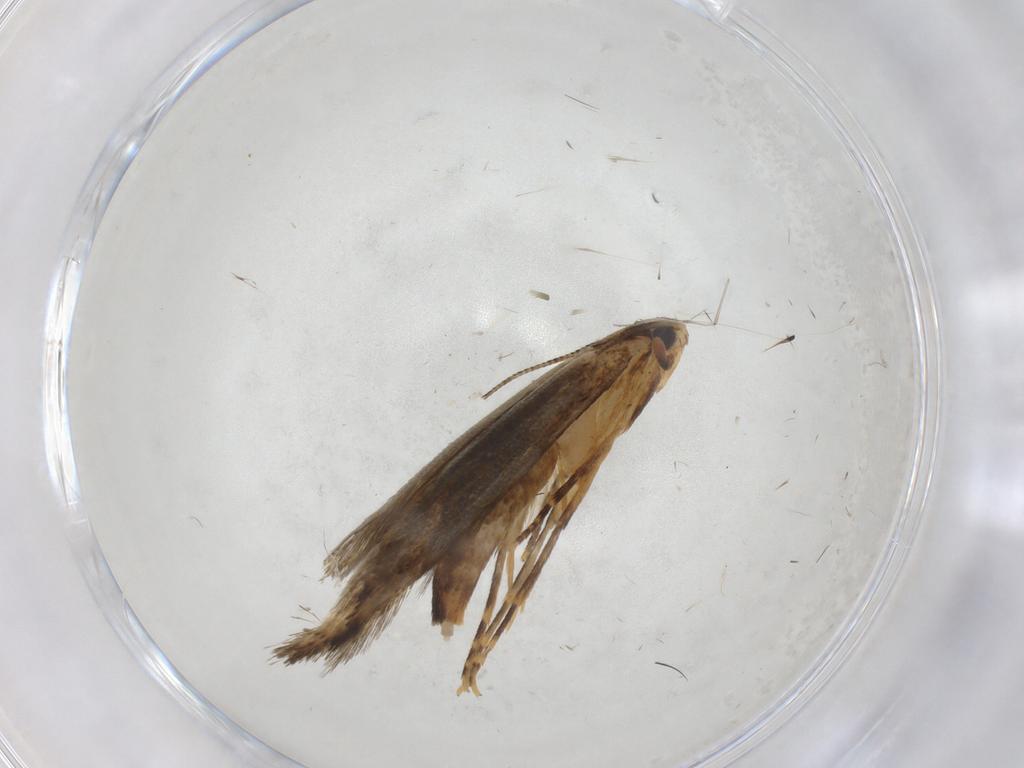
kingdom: Animalia
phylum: Arthropoda
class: Insecta
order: Lepidoptera
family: Tineidae
